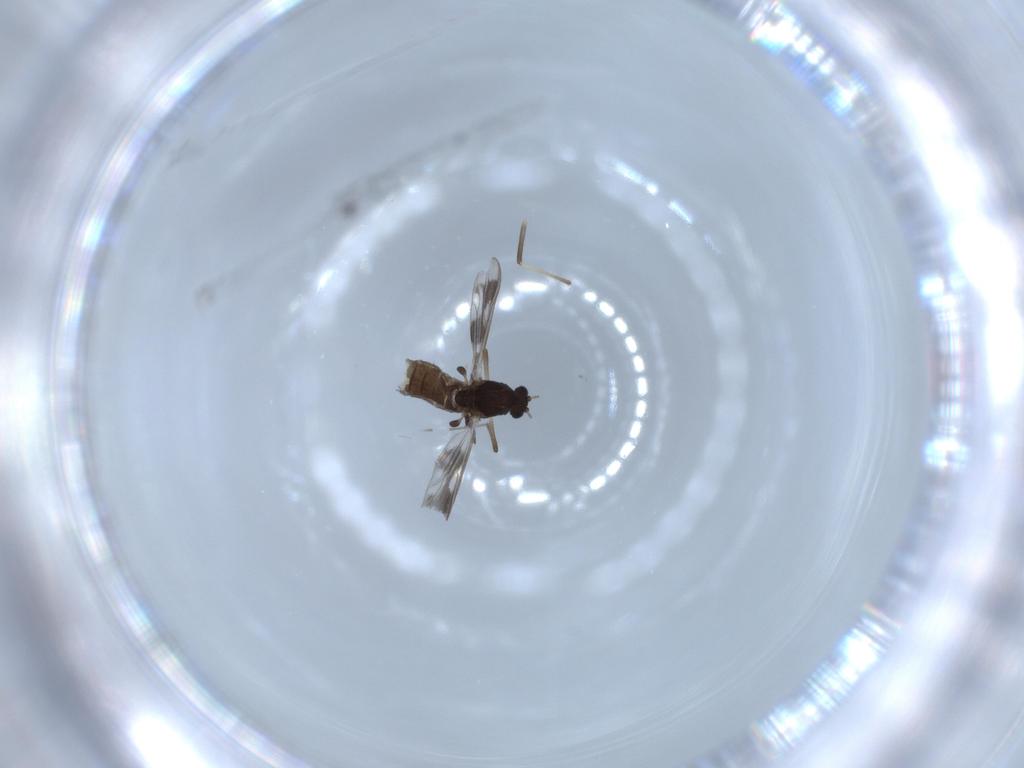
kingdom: Animalia
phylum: Arthropoda
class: Insecta
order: Diptera
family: Chironomidae
